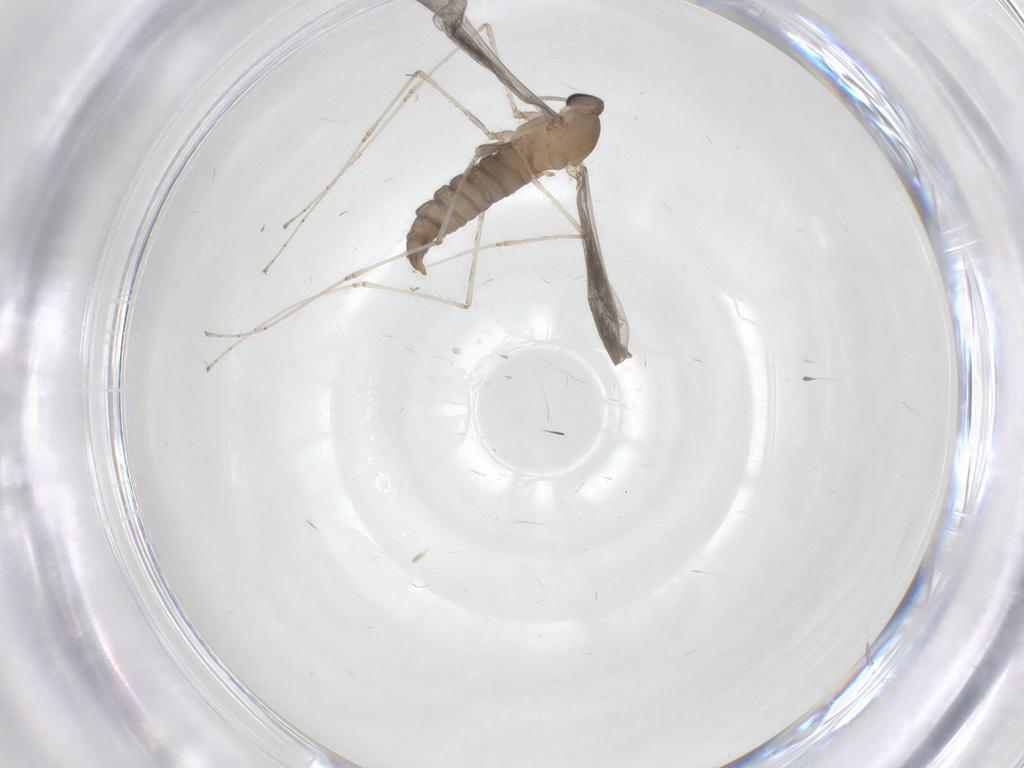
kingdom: Animalia
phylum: Arthropoda
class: Insecta
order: Diptera
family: Cecidomyiidae
